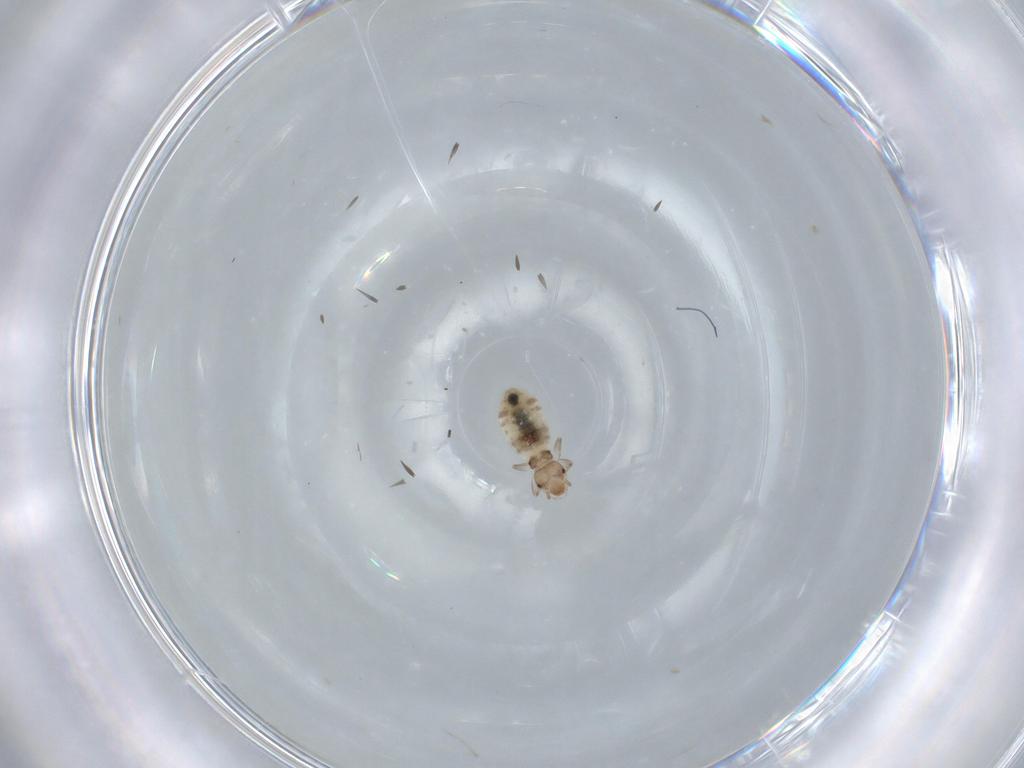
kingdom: Animalia
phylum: Arthropoda
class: Insecta
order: Psocodea
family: Liposcelididae
